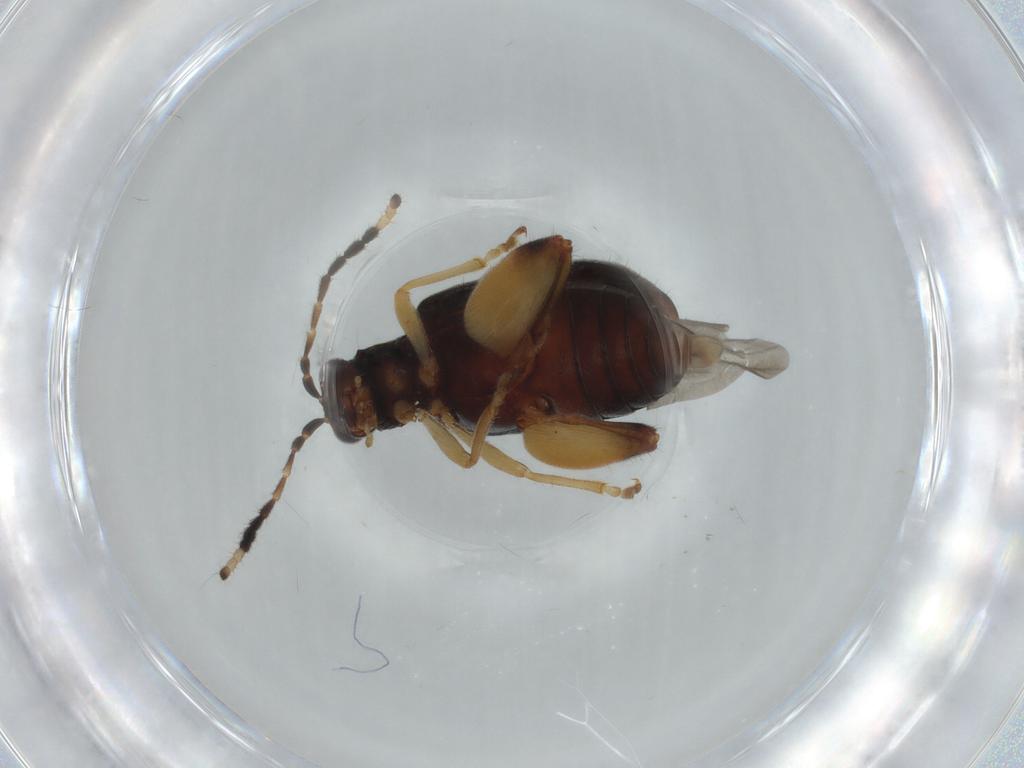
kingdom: Animalia
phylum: Arthropoda
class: Insecta
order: Coleoptera
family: Chrysomelidae
